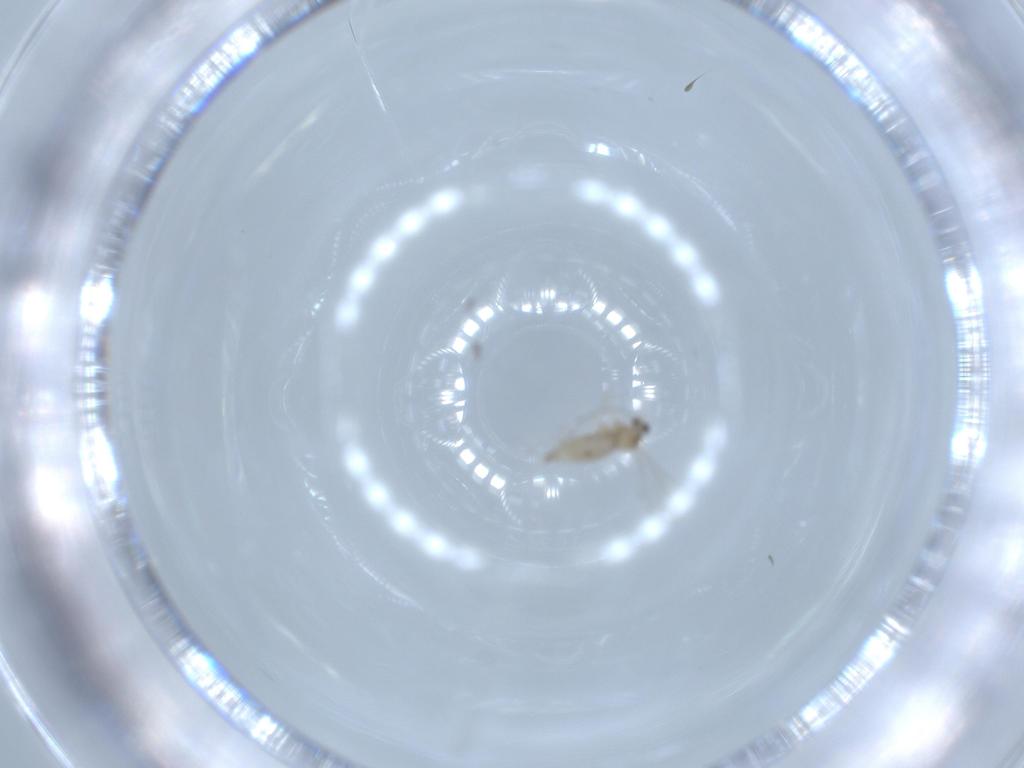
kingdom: Animalia
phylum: Arthropoda
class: Insecta
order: Diptera
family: Cecidomyiidae
